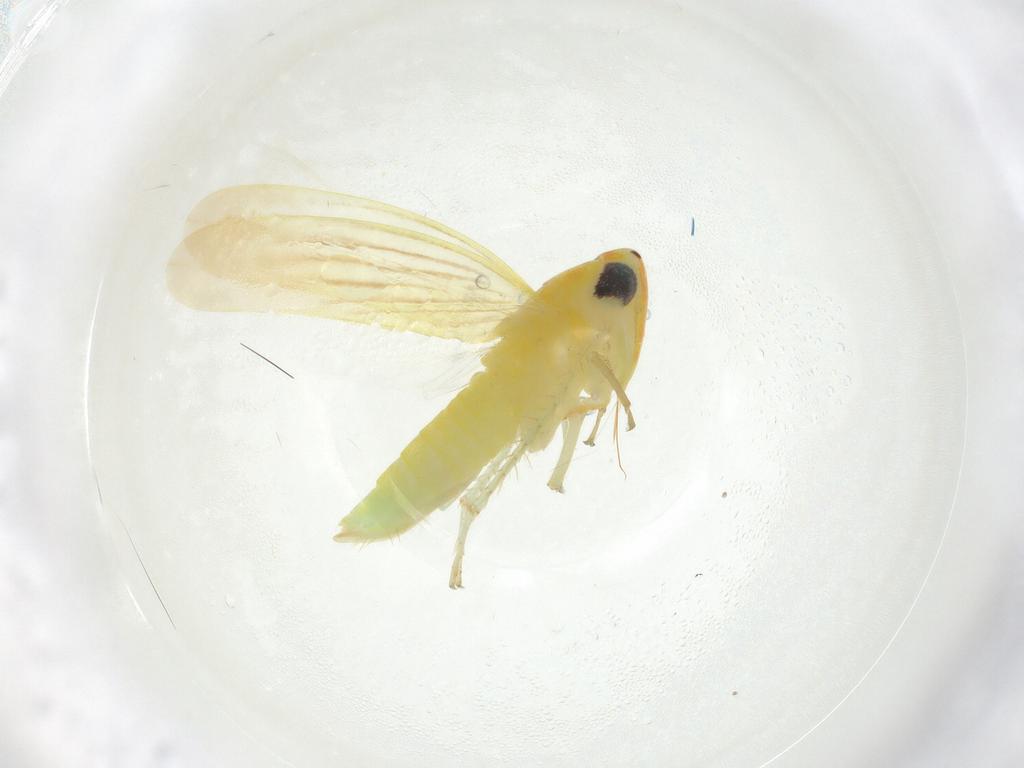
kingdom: Animalia
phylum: Arthropoda
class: Insecta
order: Hemiptera
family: Cicadellidae
